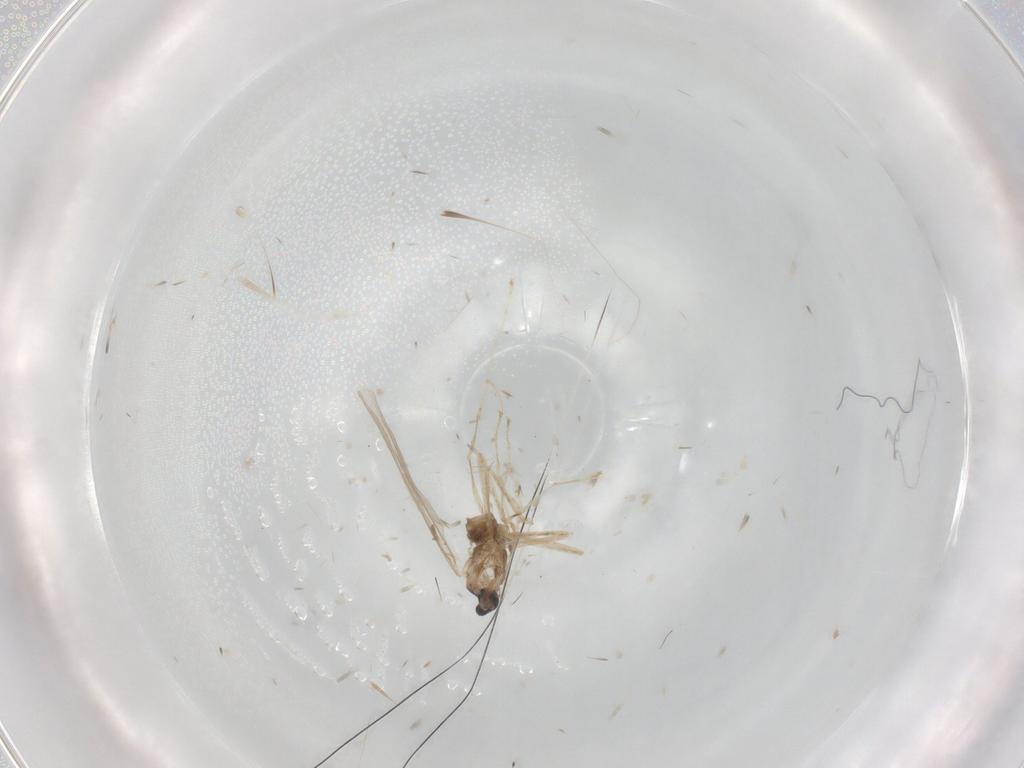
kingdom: Animalia
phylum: Arthropoda
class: Insecta
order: Diptera
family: Cecidomyiidae
